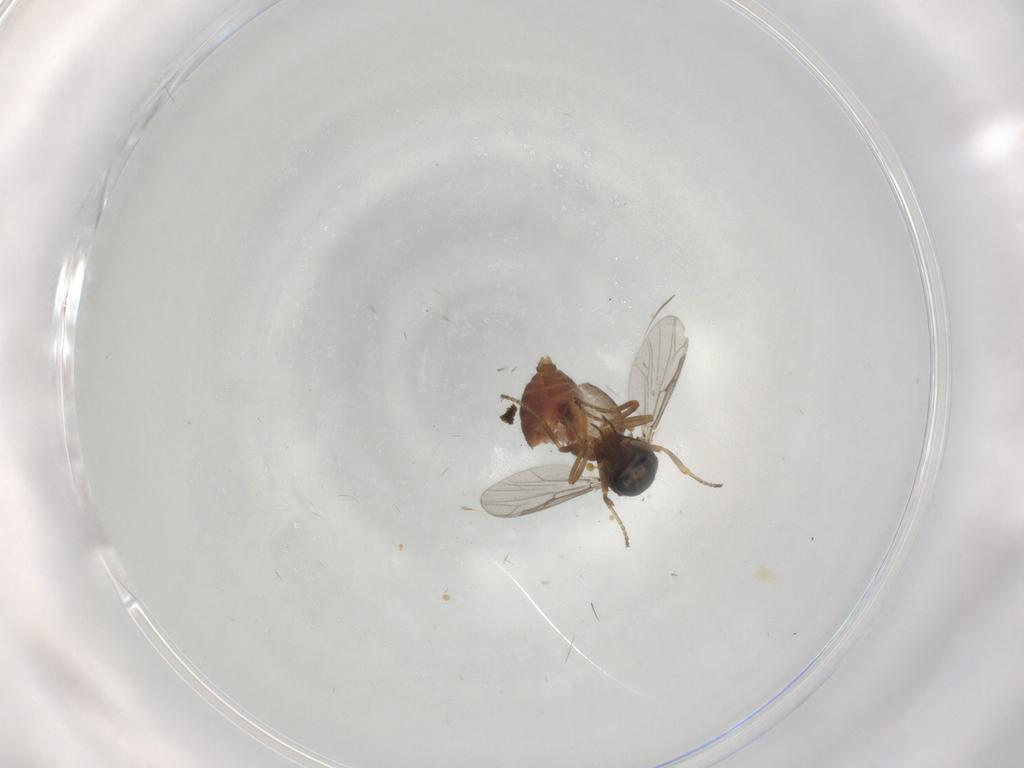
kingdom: Animalia
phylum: Arthropoda
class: Insecta
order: Diptera
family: Ceratopogonidae
